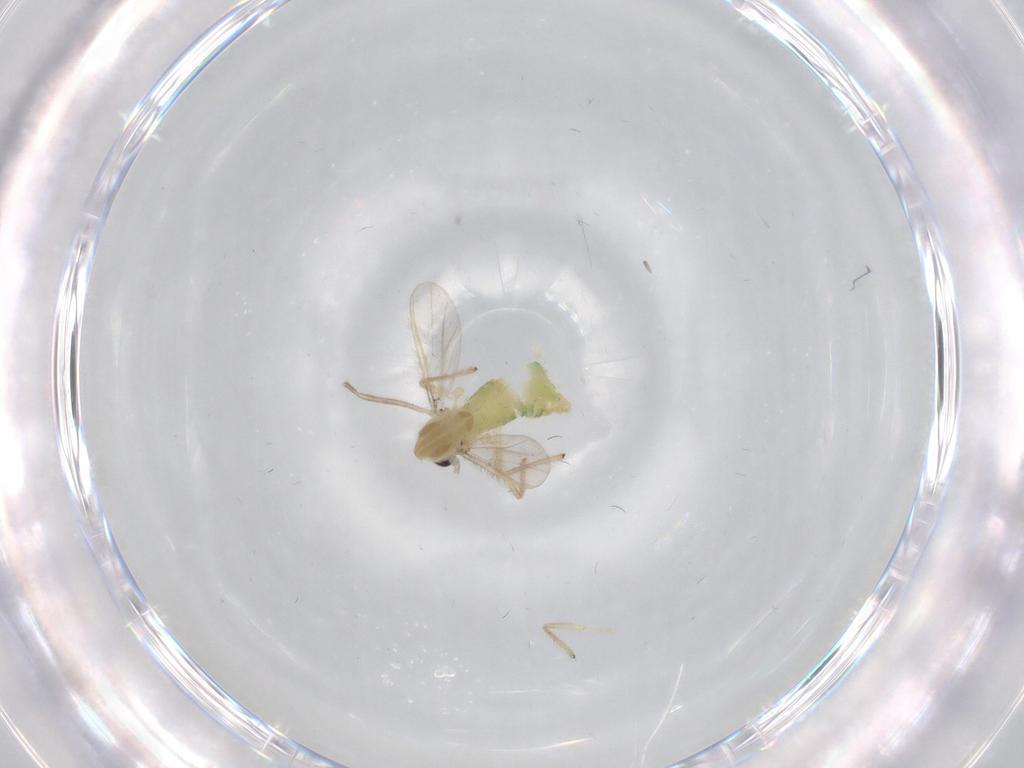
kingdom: Animalia
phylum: Arthropoda
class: Insecta
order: Diptera
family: Chironomidae
